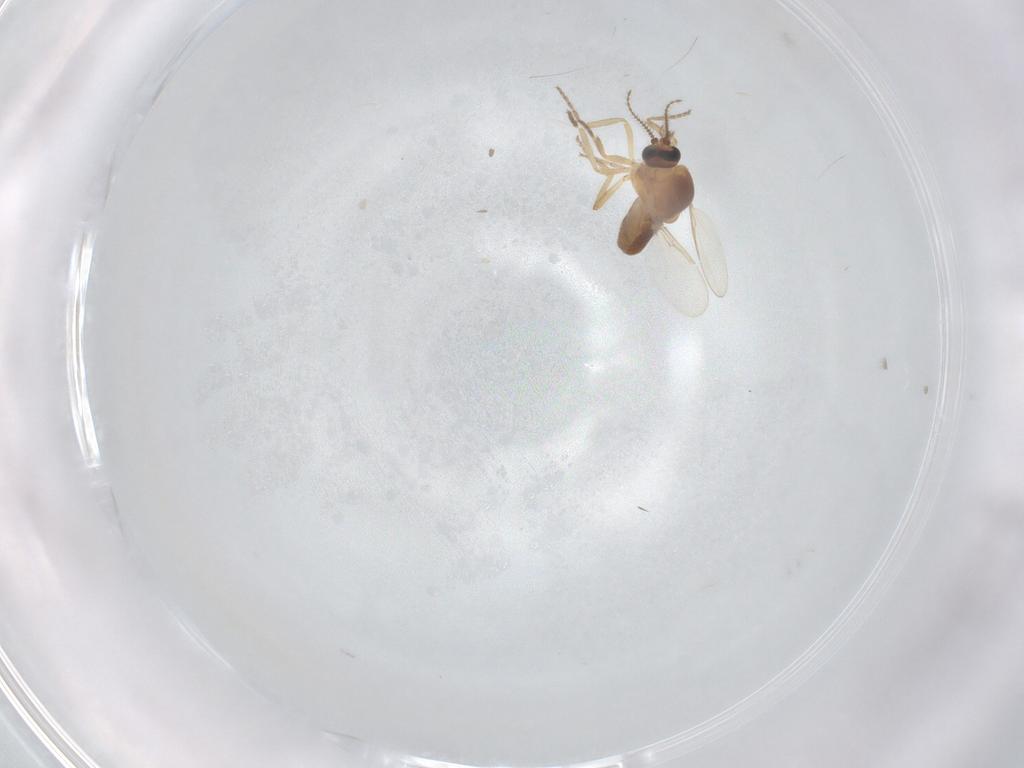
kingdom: Animalia
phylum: Arthropoda
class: Insecta
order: Diptera
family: Ceratopogonidae
